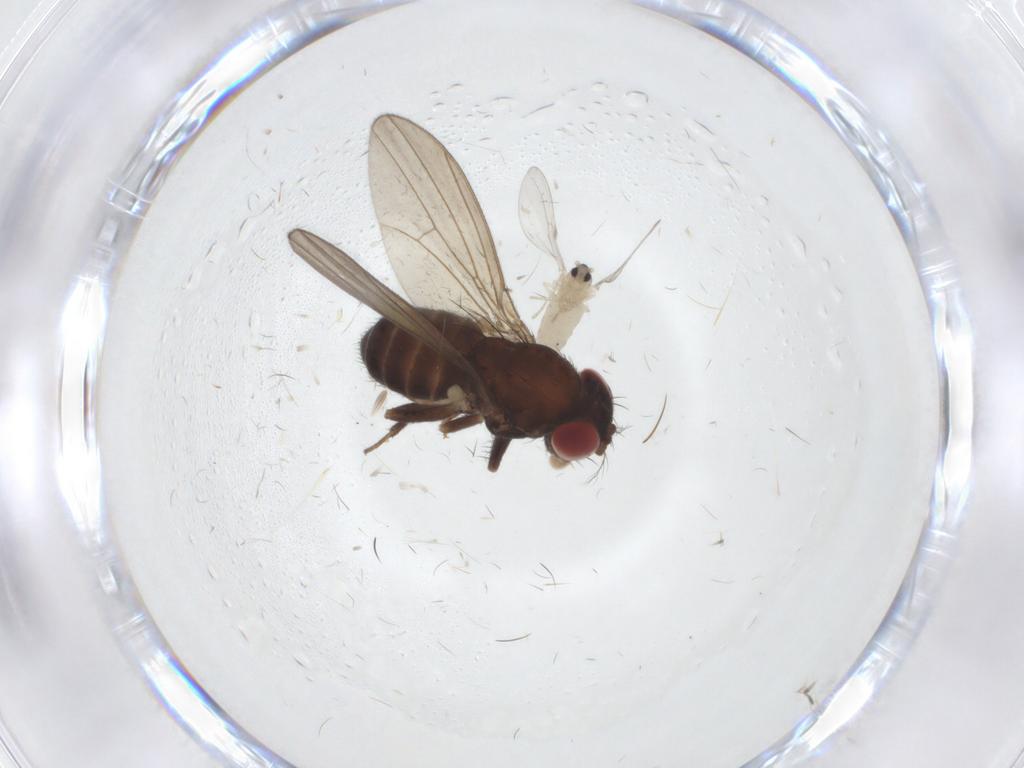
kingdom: Animalia
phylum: Arthropoda
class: Insecta
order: Diptera
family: Drosophilidae
